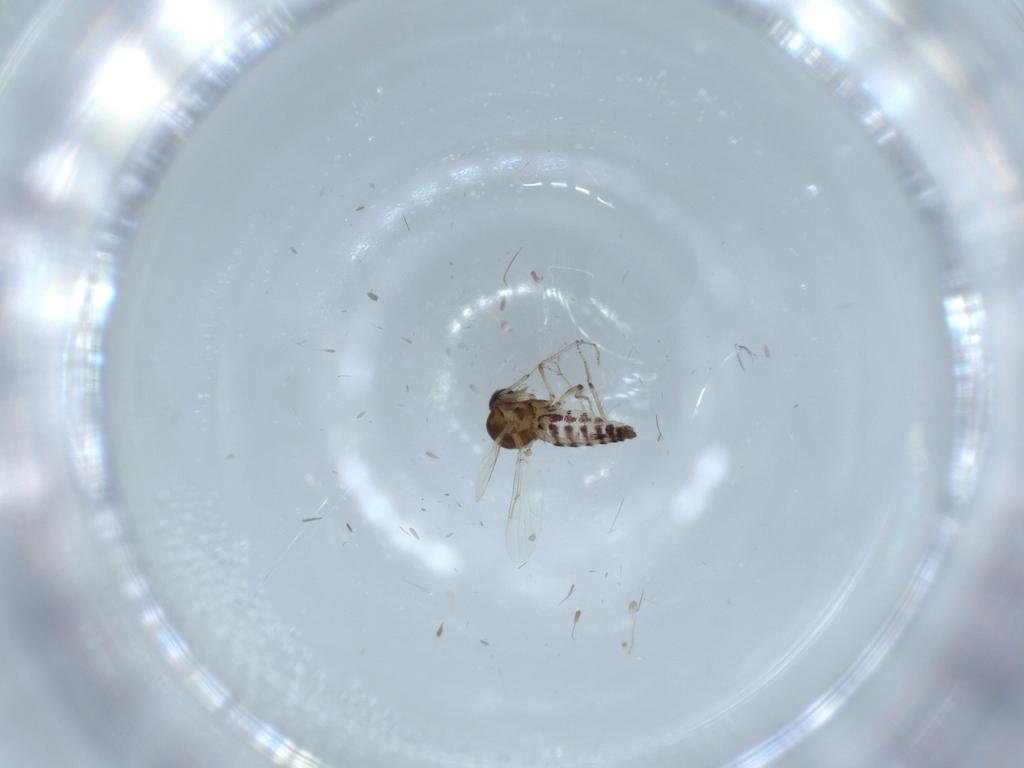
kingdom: Animalia
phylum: Arthropoda
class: Insecta
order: Diptera
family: Ceratopogonidae
